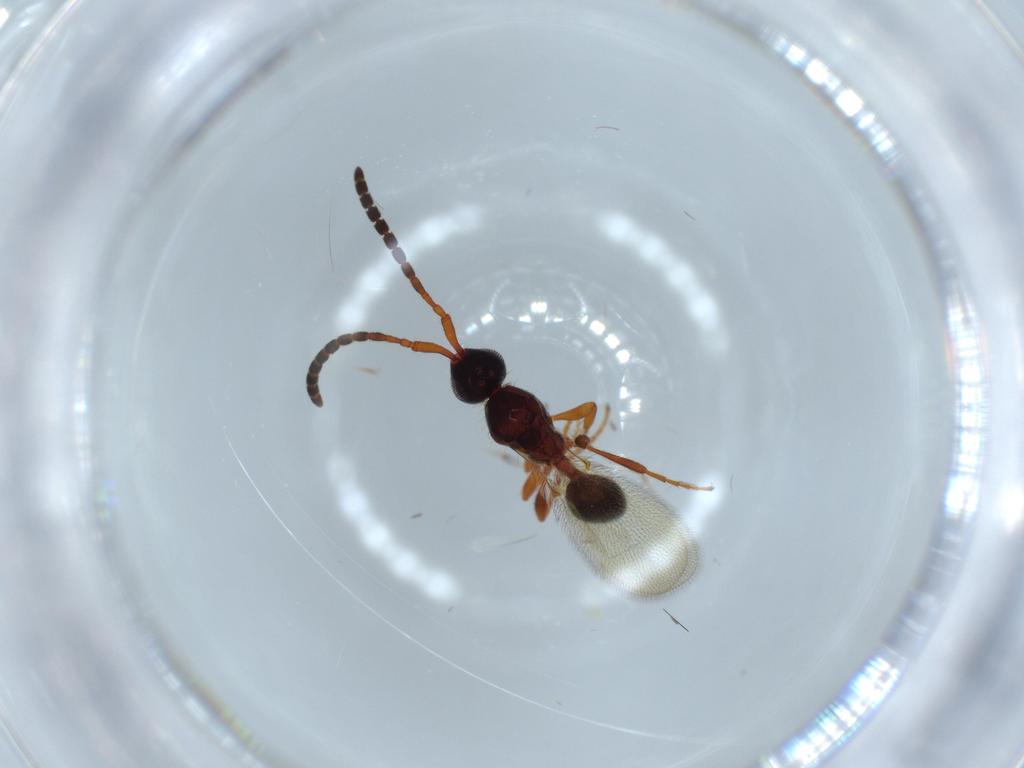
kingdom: Animalia
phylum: Arthropoda
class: Insecta
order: Hymenoptera
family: Diapriidae
